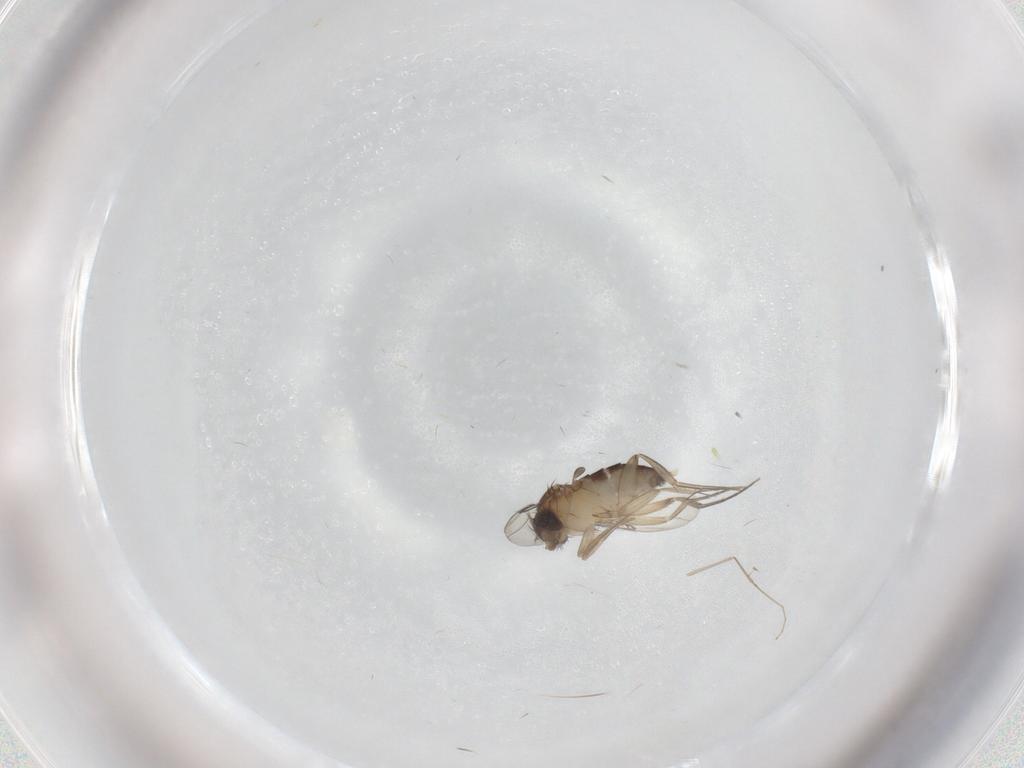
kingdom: Animalia
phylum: Arthropoda
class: Insecta
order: Diptera
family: Phoridae
